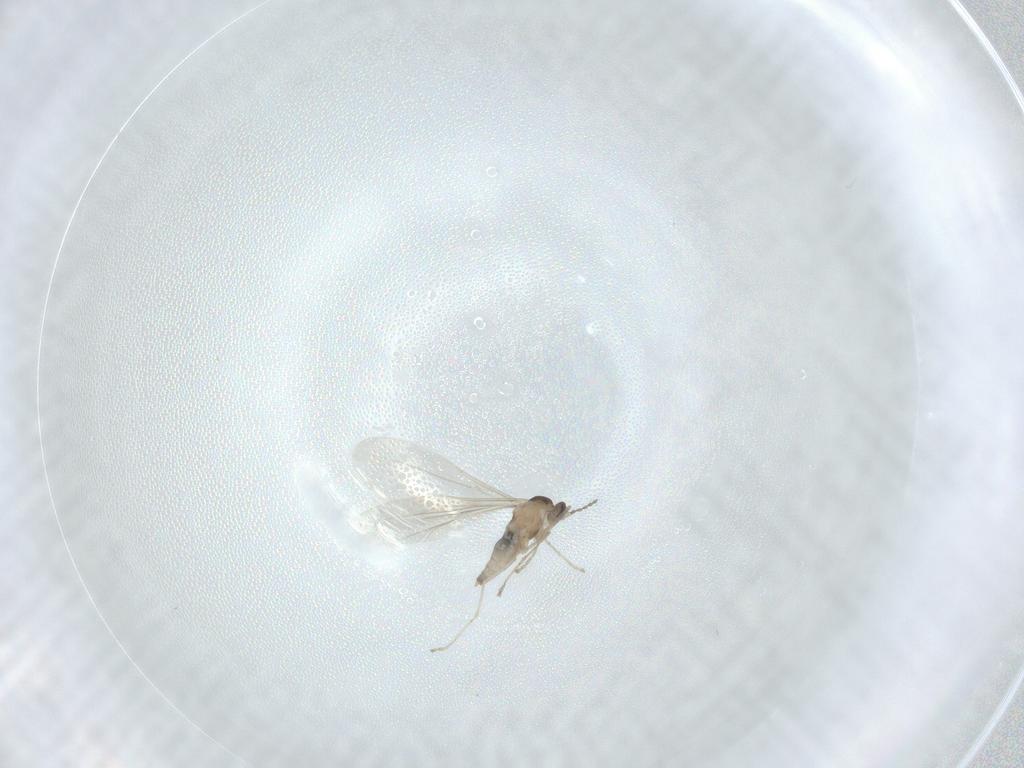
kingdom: Animalia
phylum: Arthropoda
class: Insecta
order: Diptera
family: Cecidomyiidae
